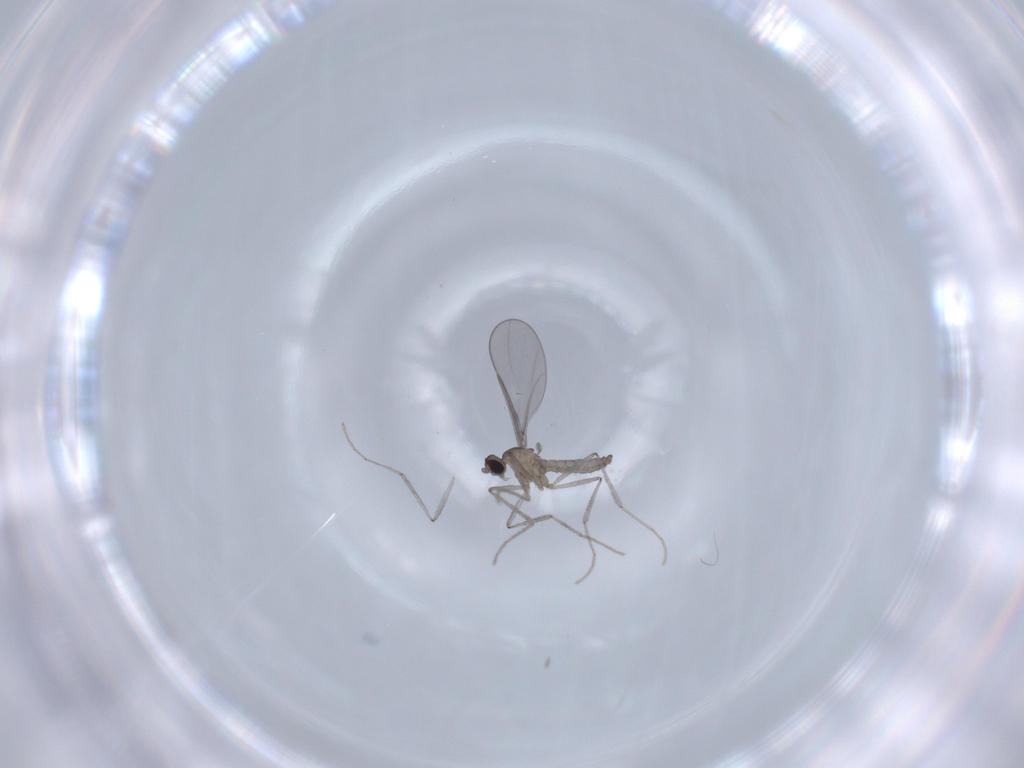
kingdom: Animalia
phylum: Arthropoda
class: Insecta
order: Diptera
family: Cecidomyiidae
